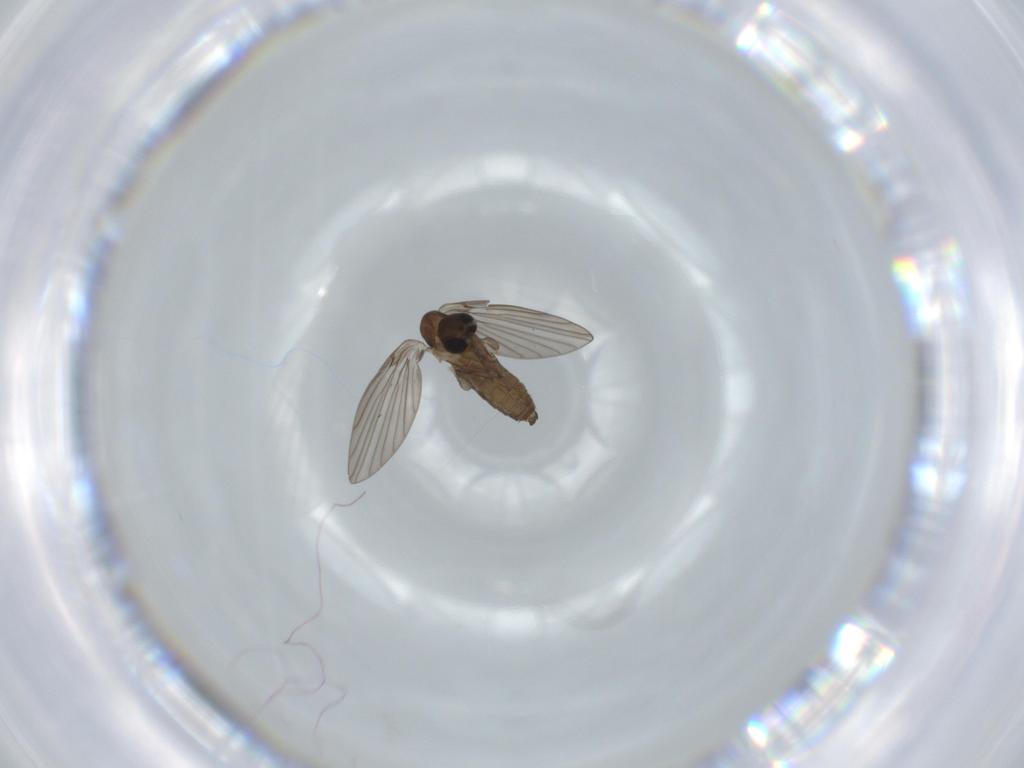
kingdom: Animalia
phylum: Arthropoda
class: Insecta
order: Diptera
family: Psychodidae
